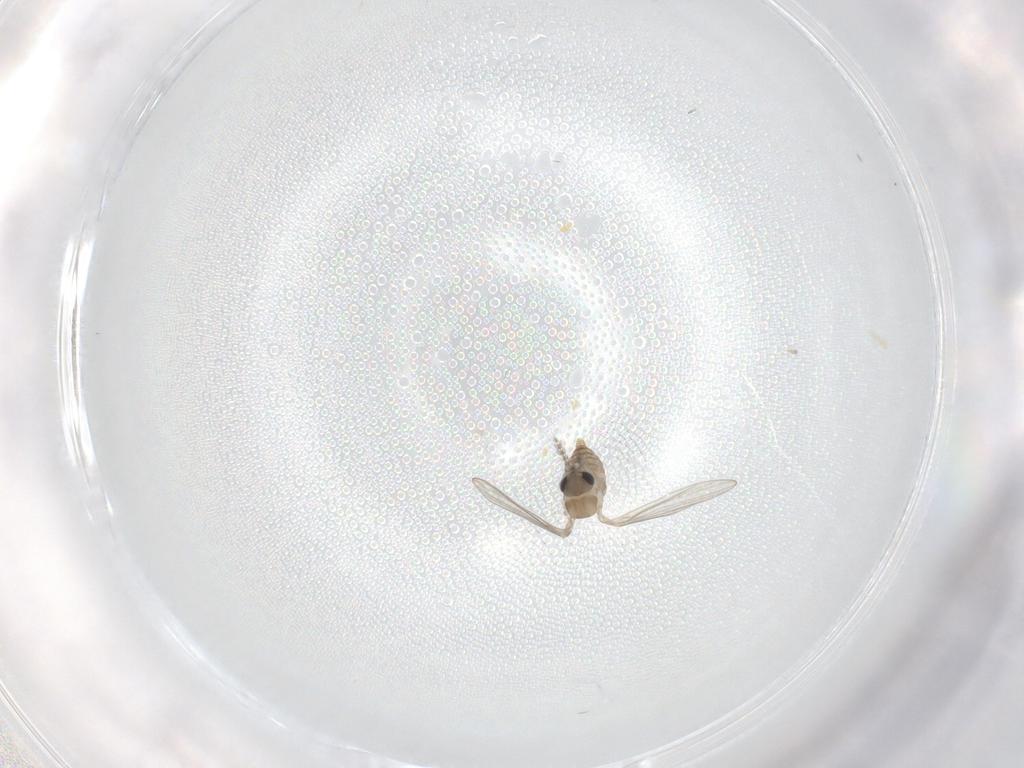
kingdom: Animalia
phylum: Arthropoda
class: Insecta
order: Diptera
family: Psychodidae
